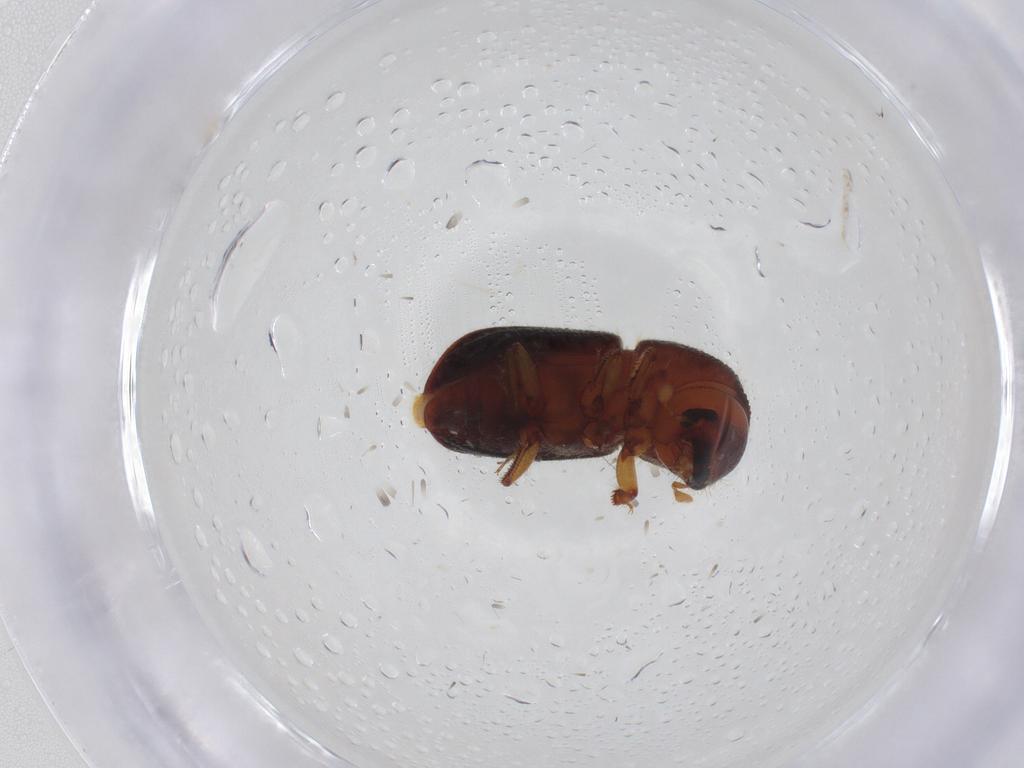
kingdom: Animalia
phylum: Arthropoda
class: Insecta
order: Coleoptera
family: Curculionidae
